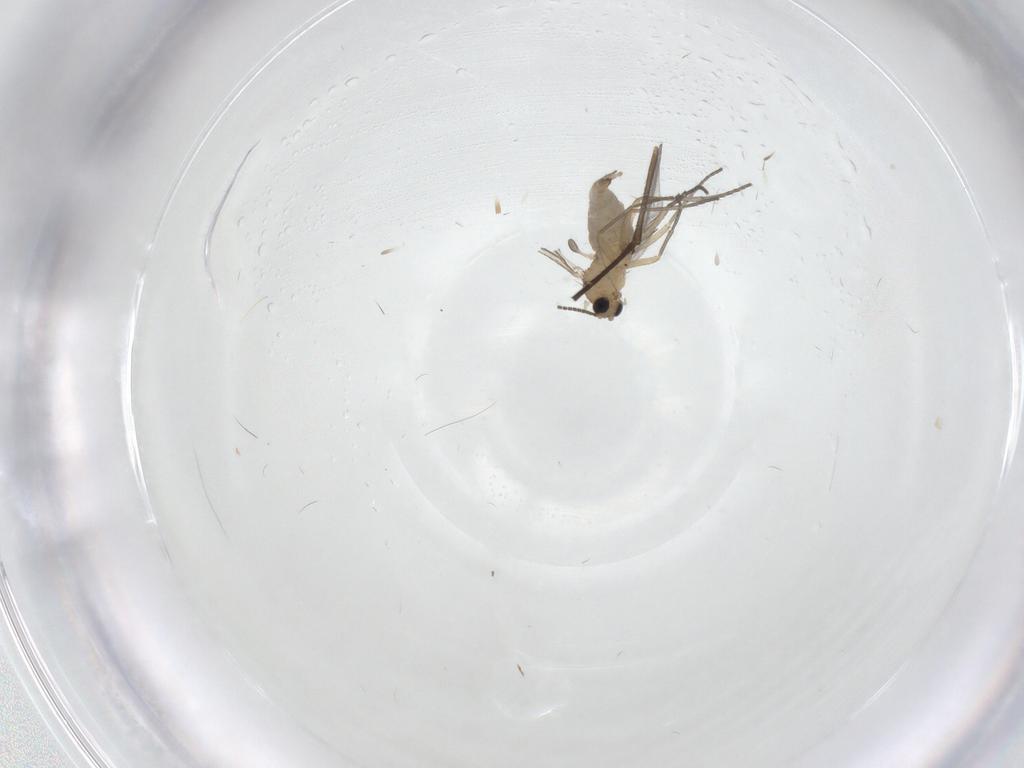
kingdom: Animalia
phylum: Arthropoda
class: Insecta
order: Diptera
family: Sciaridae
